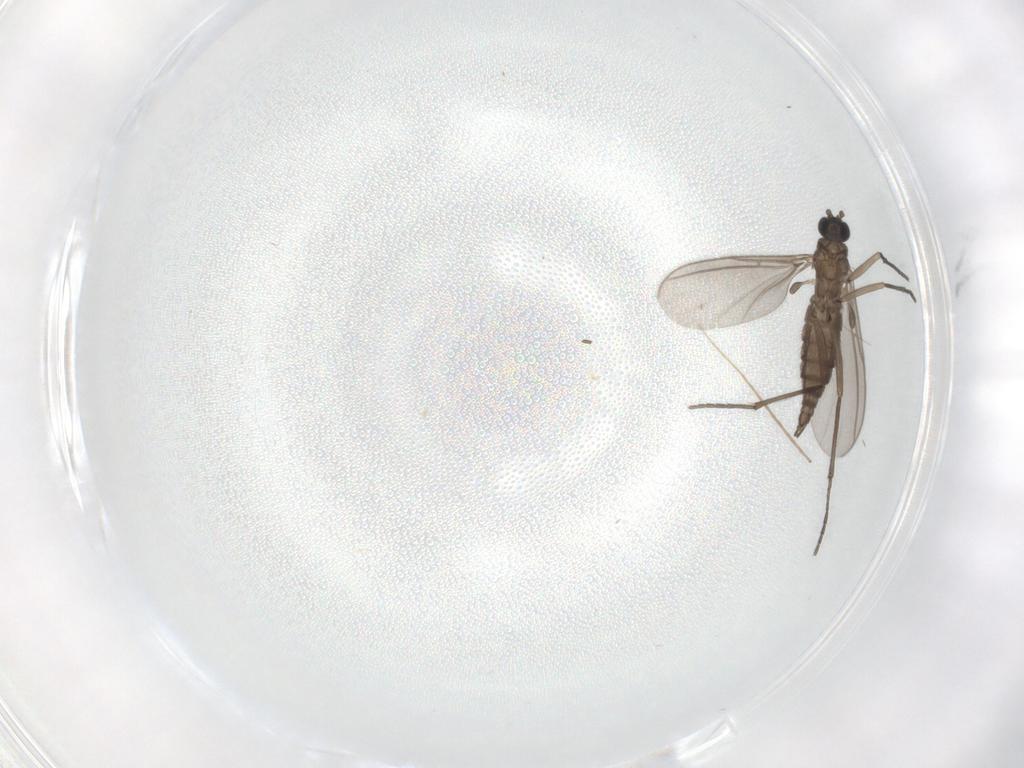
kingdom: Animalia
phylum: Arthropoda
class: Insecta
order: Diptera
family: Sciaridae
